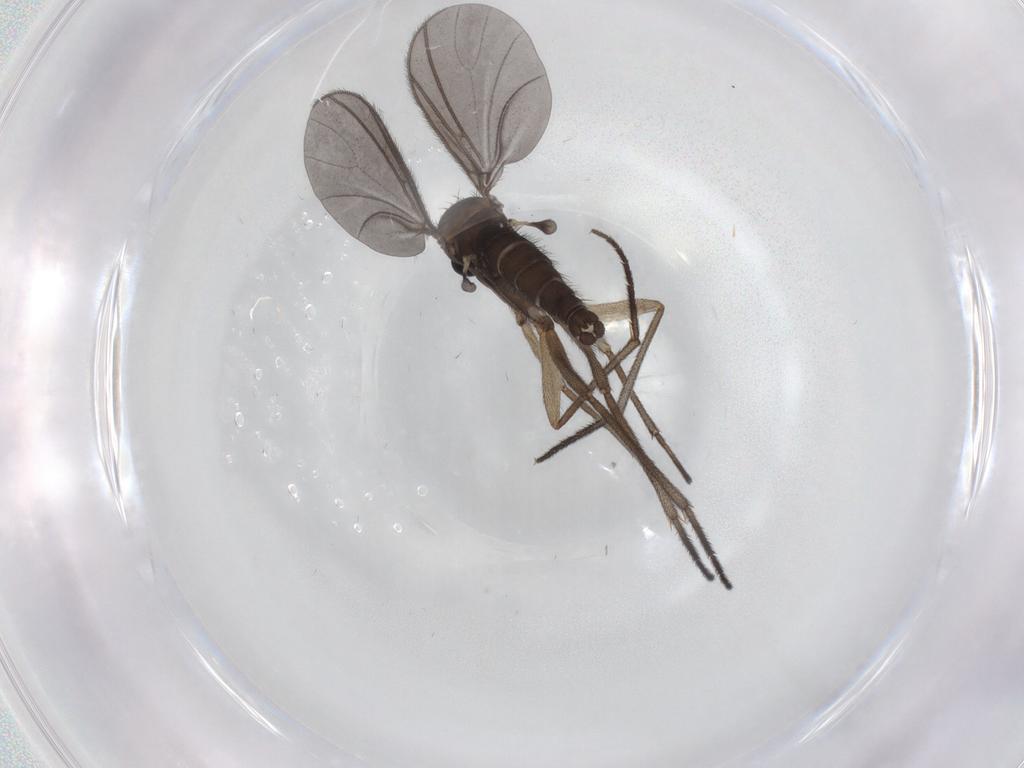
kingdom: Animalia
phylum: Arthropoda
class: Insecta
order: Diptera
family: Sciaridae
